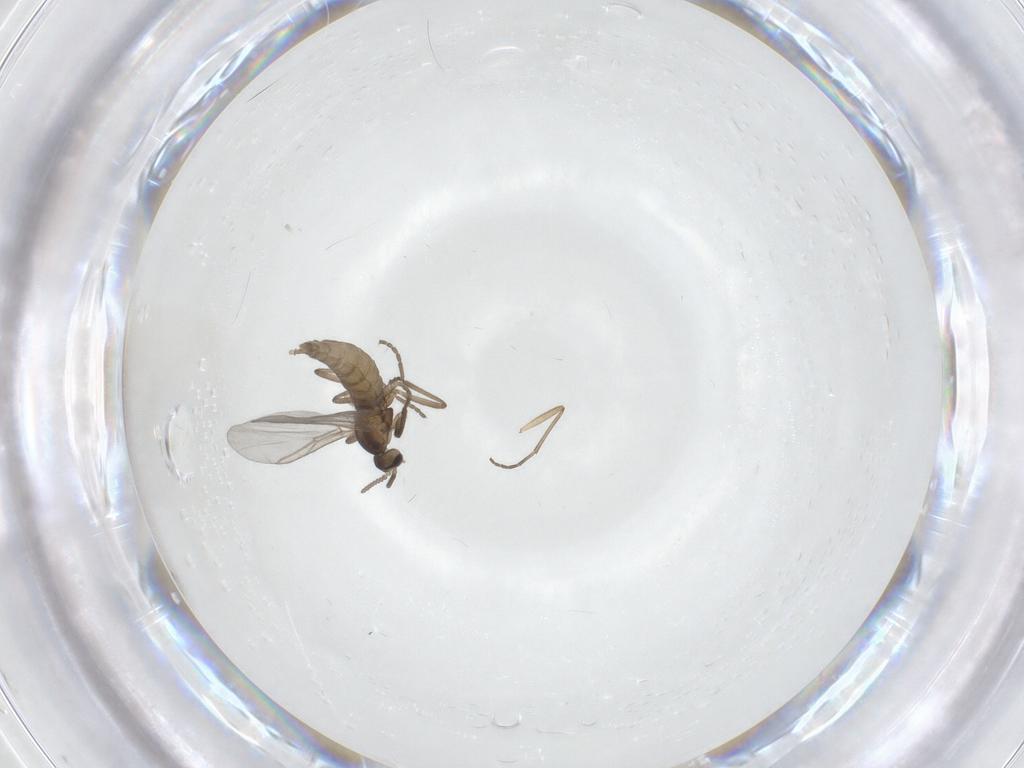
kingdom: Animalia
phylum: Arthropoda
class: Insecta
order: Diptera
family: Cecidomyiidae
